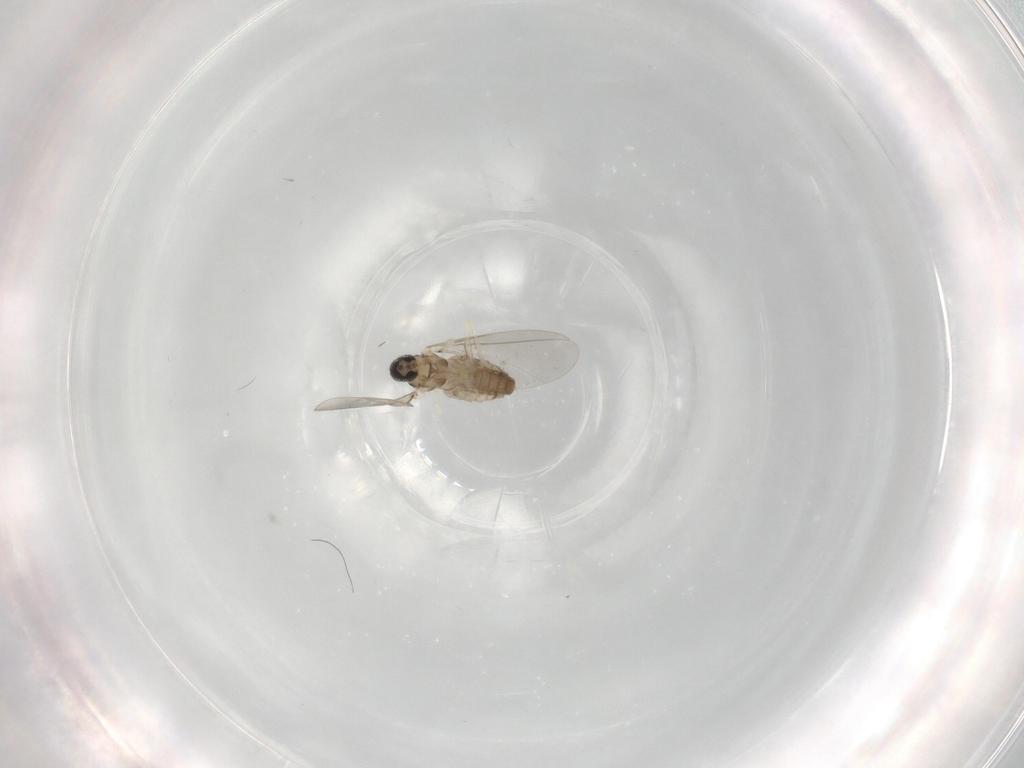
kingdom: Animalia
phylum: Arthropoda
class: Insecta
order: Diptera
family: Cecidomyiidae
